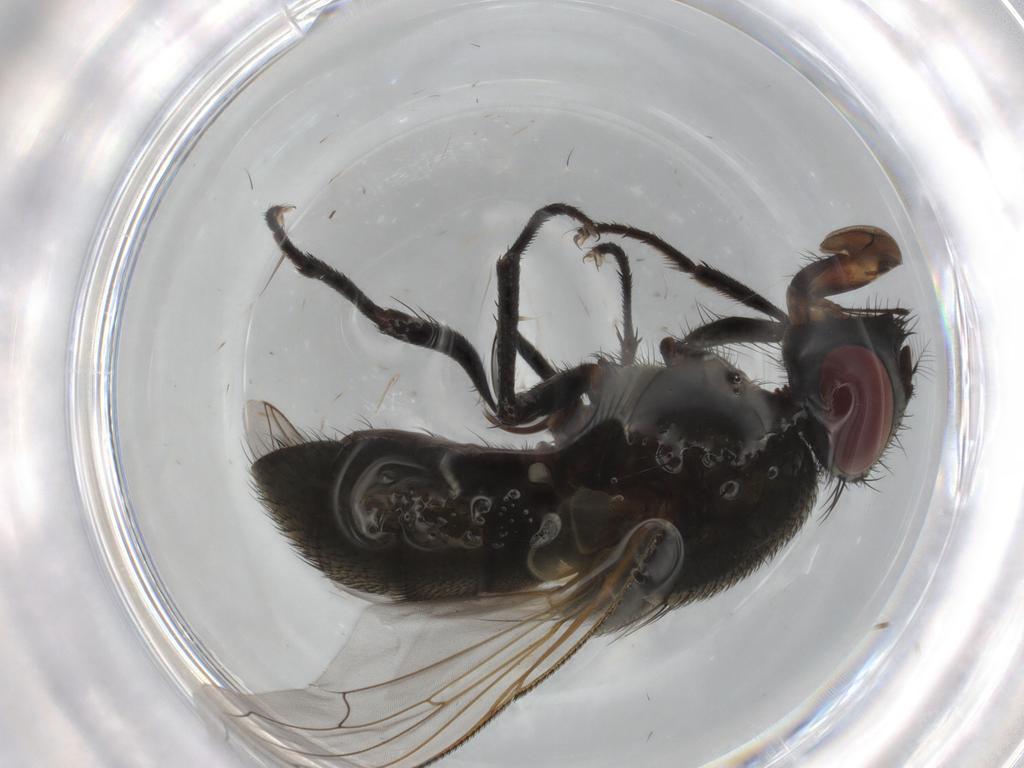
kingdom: Animalia
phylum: Arthropoda
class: Insecta
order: Diptera
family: Muscidae
